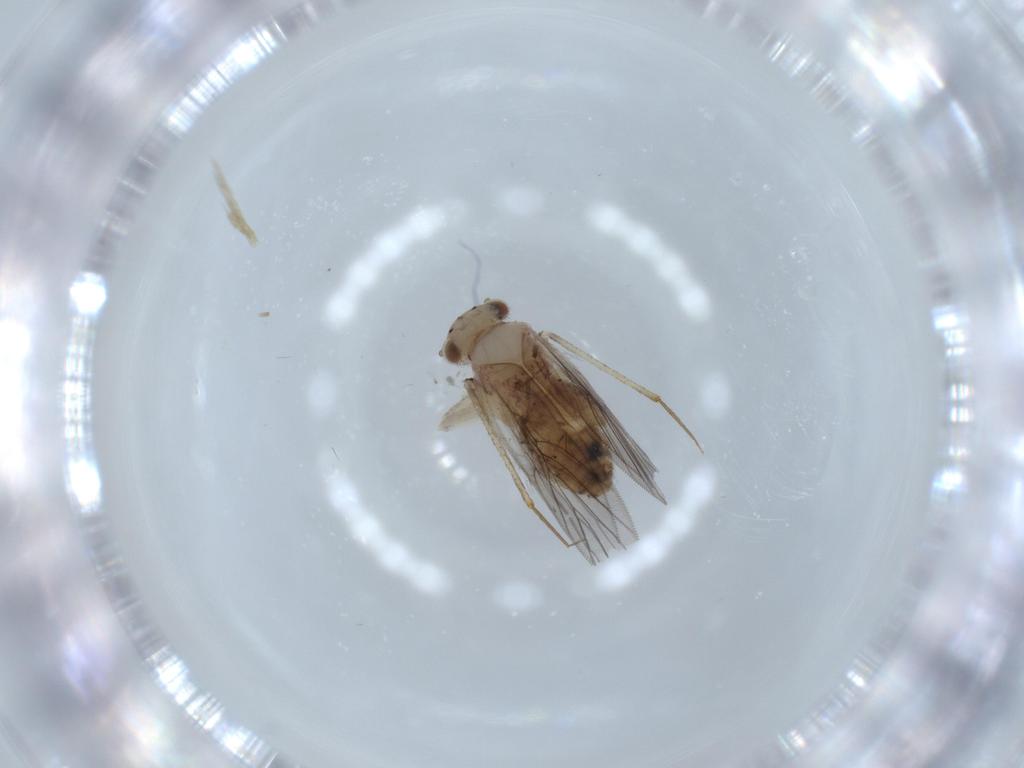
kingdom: Animalia
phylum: Arthropoda
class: Insecta
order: Psocodea
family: Lepidopsocidae
